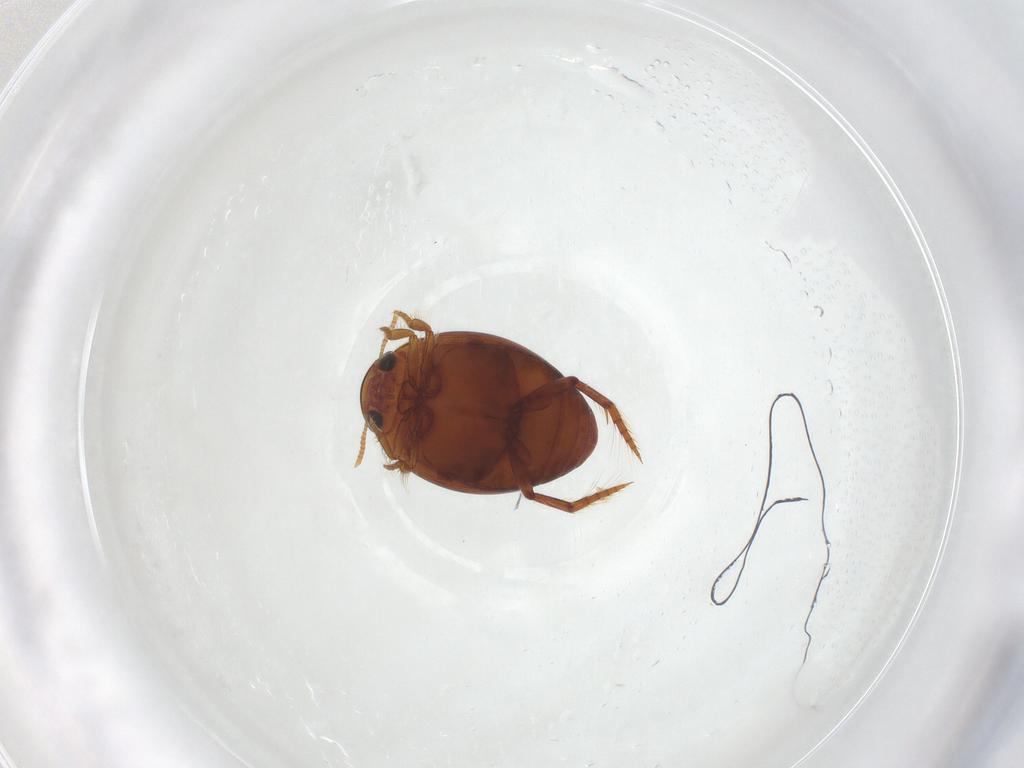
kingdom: Animalia
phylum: Arthropoda
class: Insecta
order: Coleoptera
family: Dytiscidae
